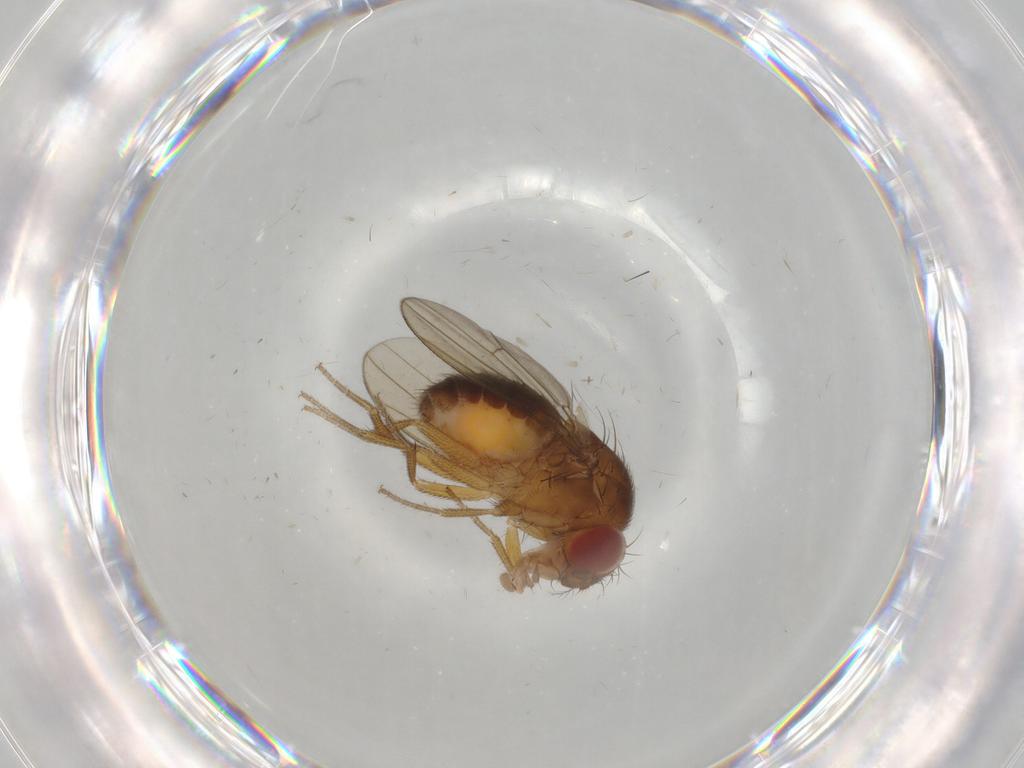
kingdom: Animalia
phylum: Arthropoda
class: Insecta
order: Diptera
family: Drosophilidae
